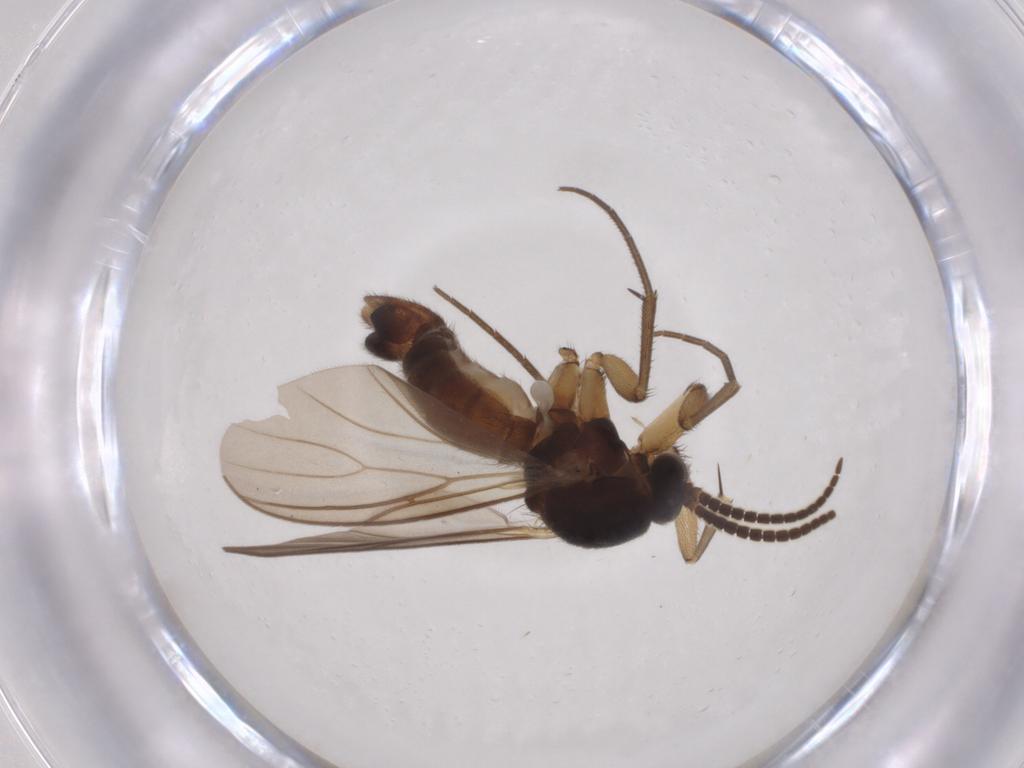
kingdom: Animalia
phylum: Arthropoda
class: Insecta
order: Diptera
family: Mycetophilidae
